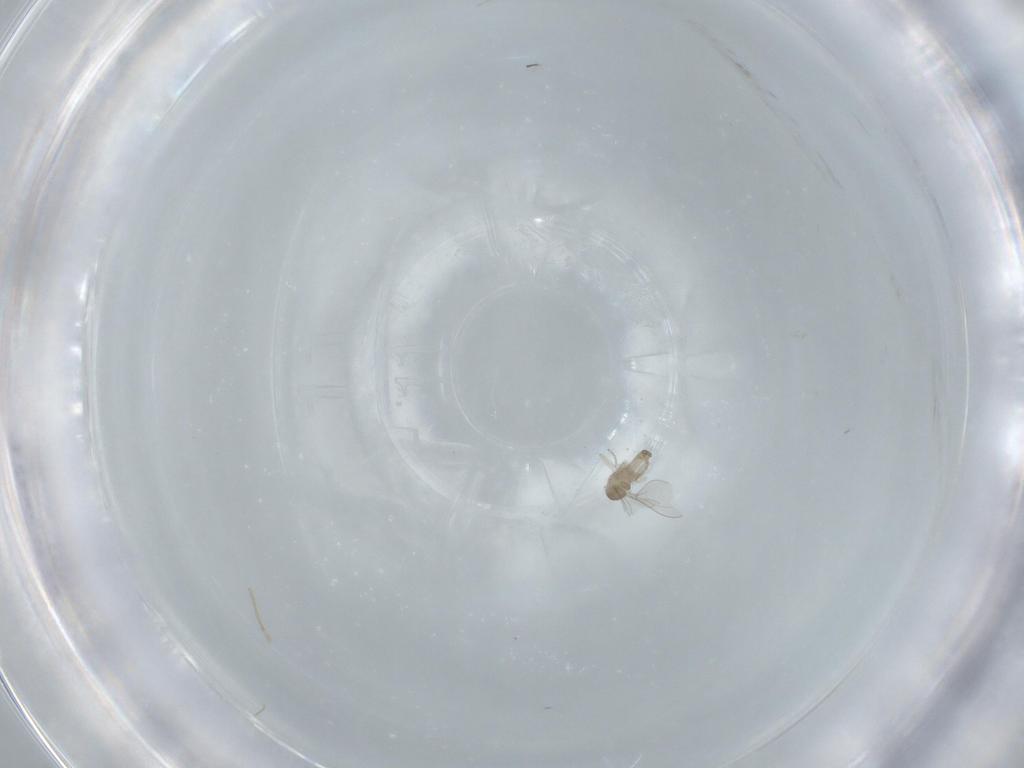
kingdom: Animalia
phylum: Arthropoda
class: Insecta
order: Diptera
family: Cecidomyiidae
